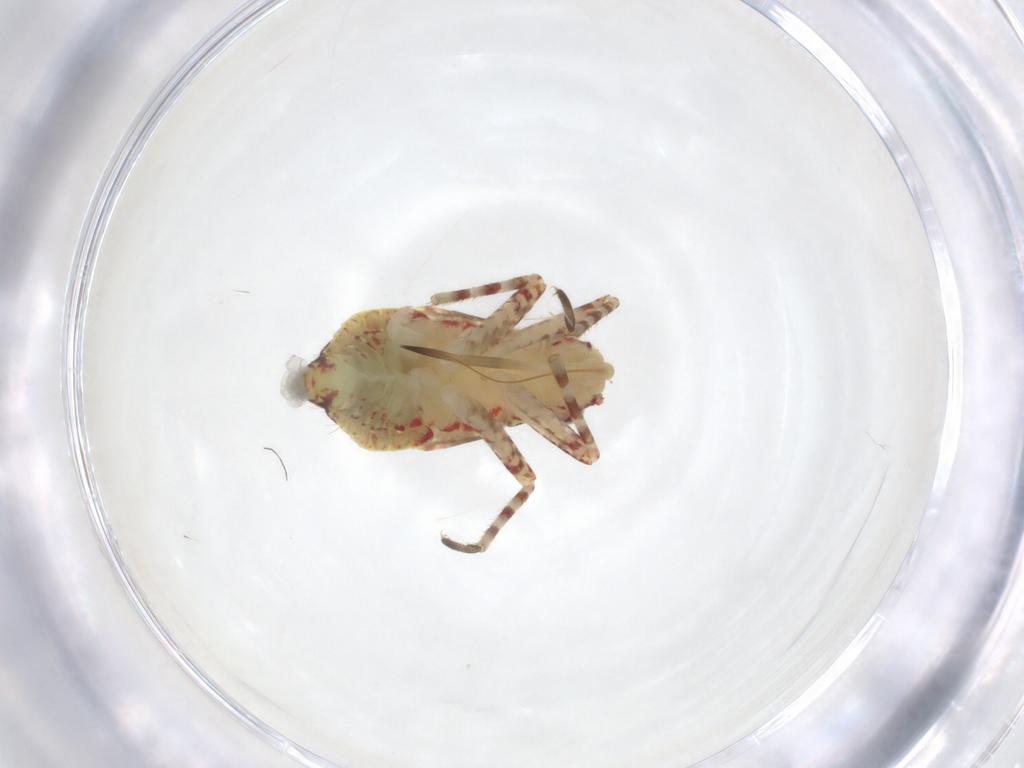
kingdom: Animalia
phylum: Arthropoda
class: Insecta
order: Hemiptera
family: Miridae
